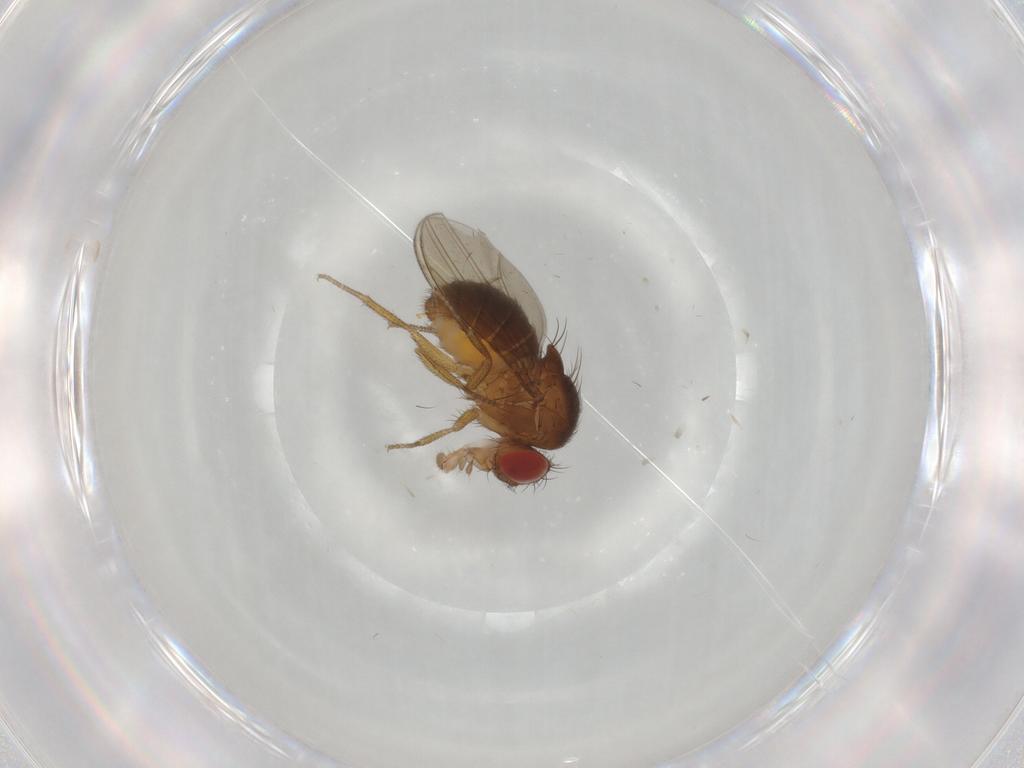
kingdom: Animalia
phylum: Arthropoda
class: Insecta
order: Diptera
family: Drosophilidae
